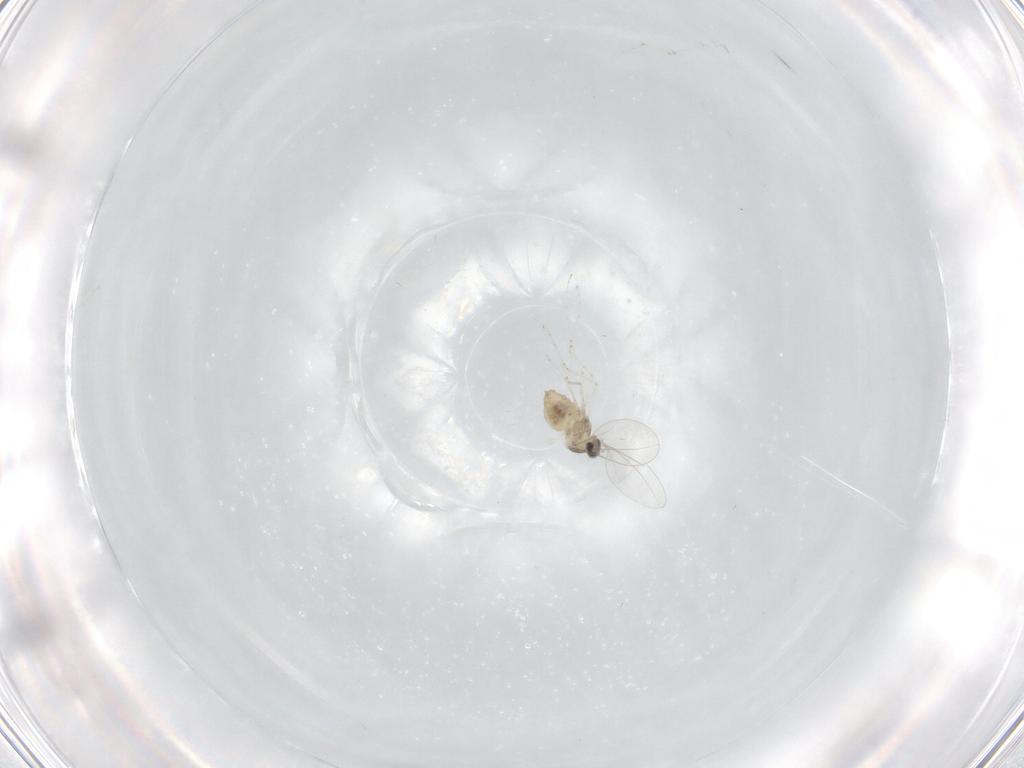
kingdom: Animalia
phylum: Arthropoda
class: Insecta
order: Diptera
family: Cecidomyiidae
